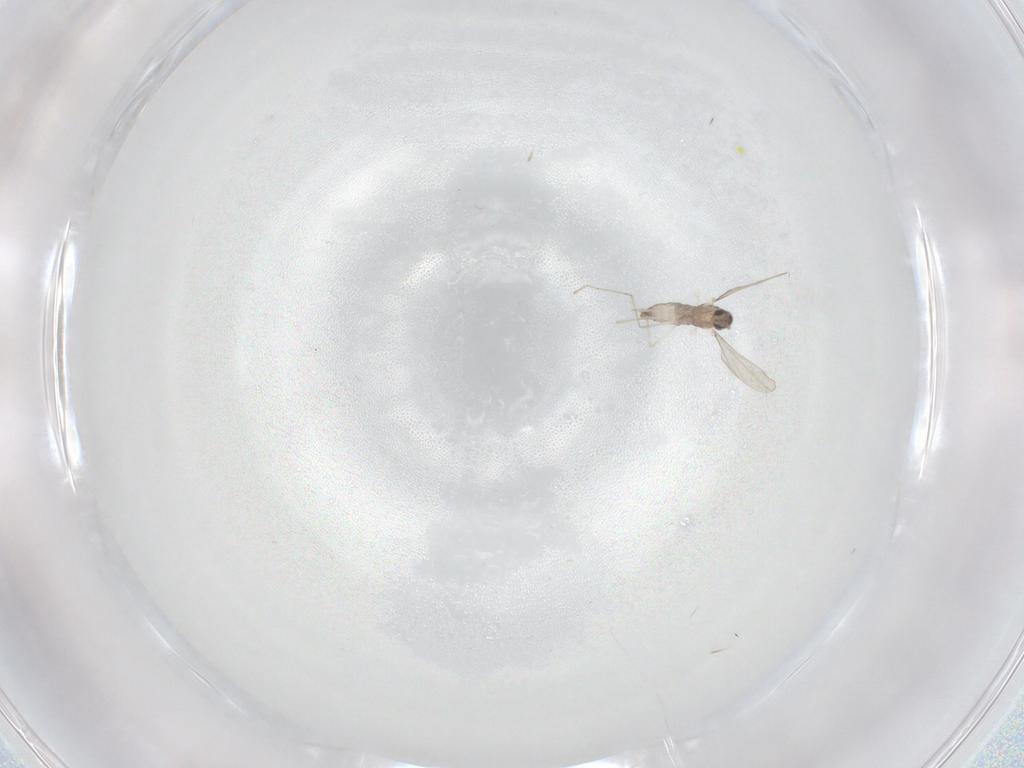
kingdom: Animalia
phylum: Arthropoda
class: Insecta
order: Diptera
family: Cecidomyiidae
